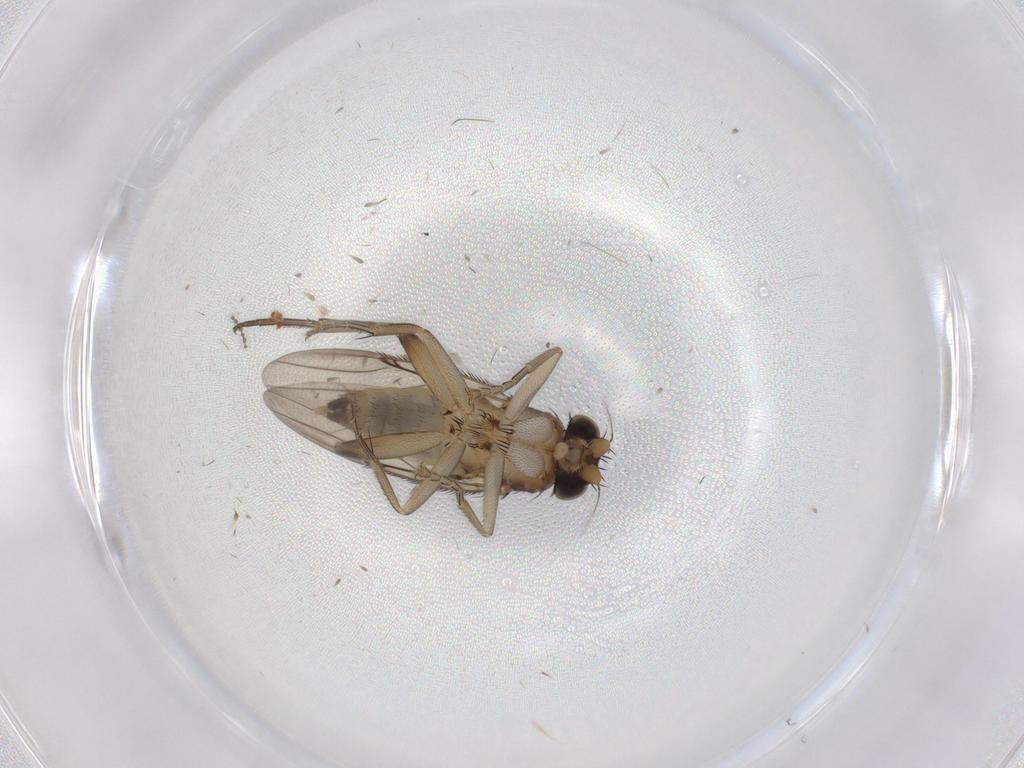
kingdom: Animalia
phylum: Arthropoda
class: Insecta
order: Diptera
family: Phoridae
